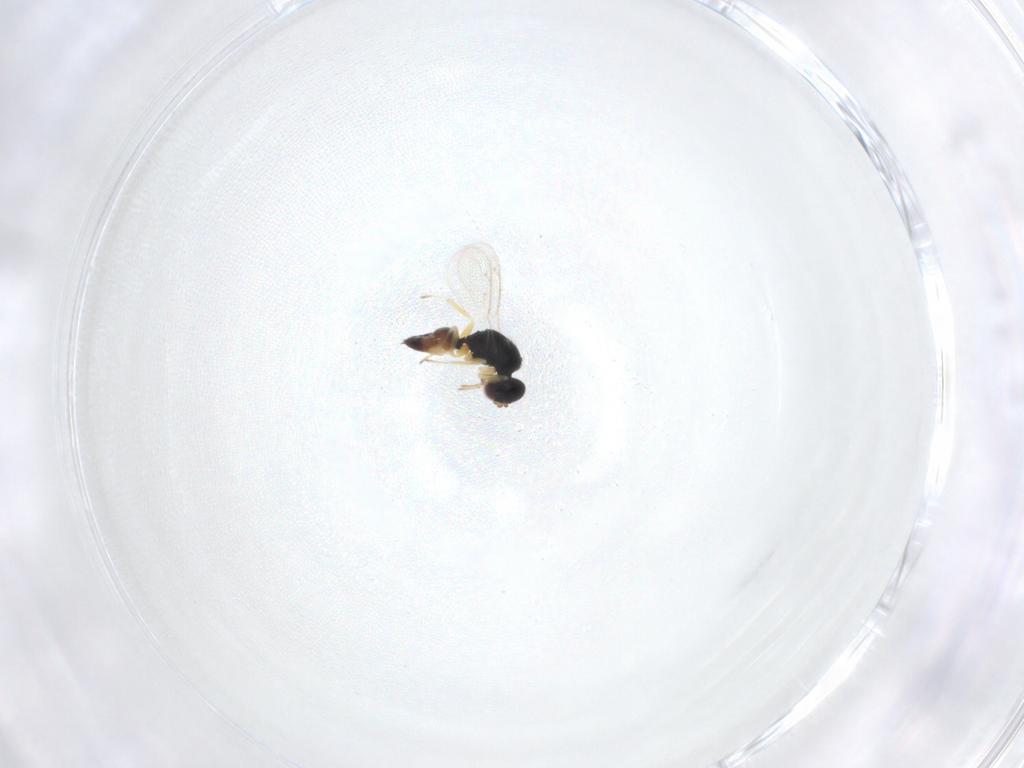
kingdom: Animalia
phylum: Arthropoda
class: Insecta
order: Hymenoptera
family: Eulophidae
